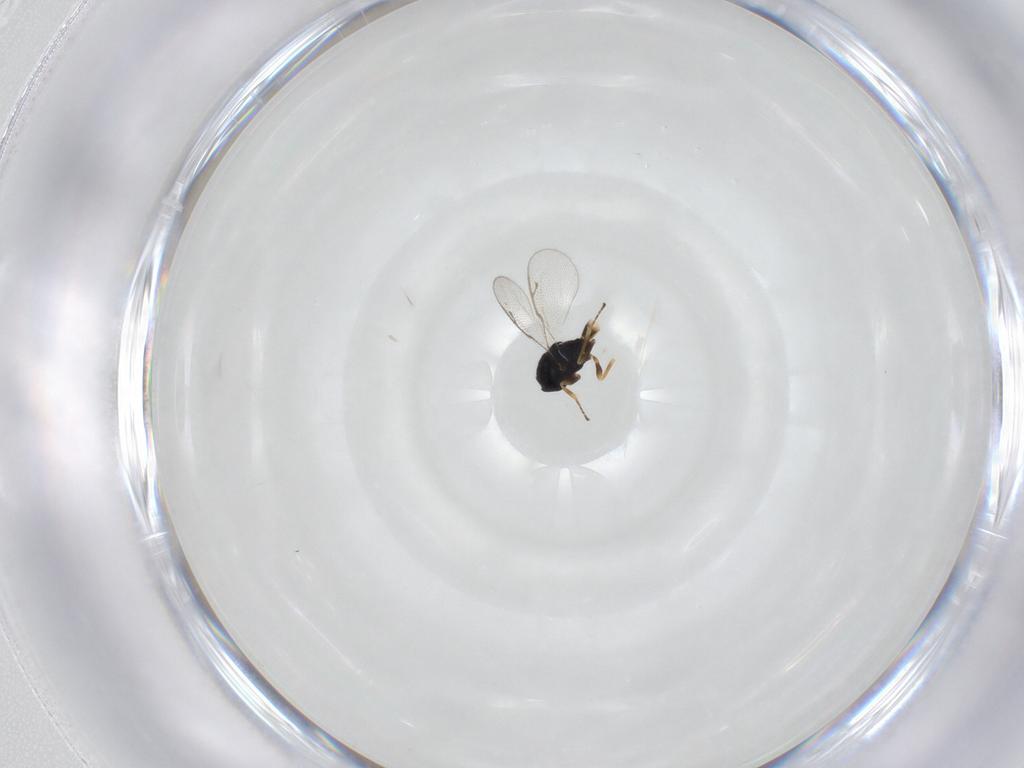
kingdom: Animalia
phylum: Arthropoda
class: Insecta
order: Hymenoptera
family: Pteromalidae
